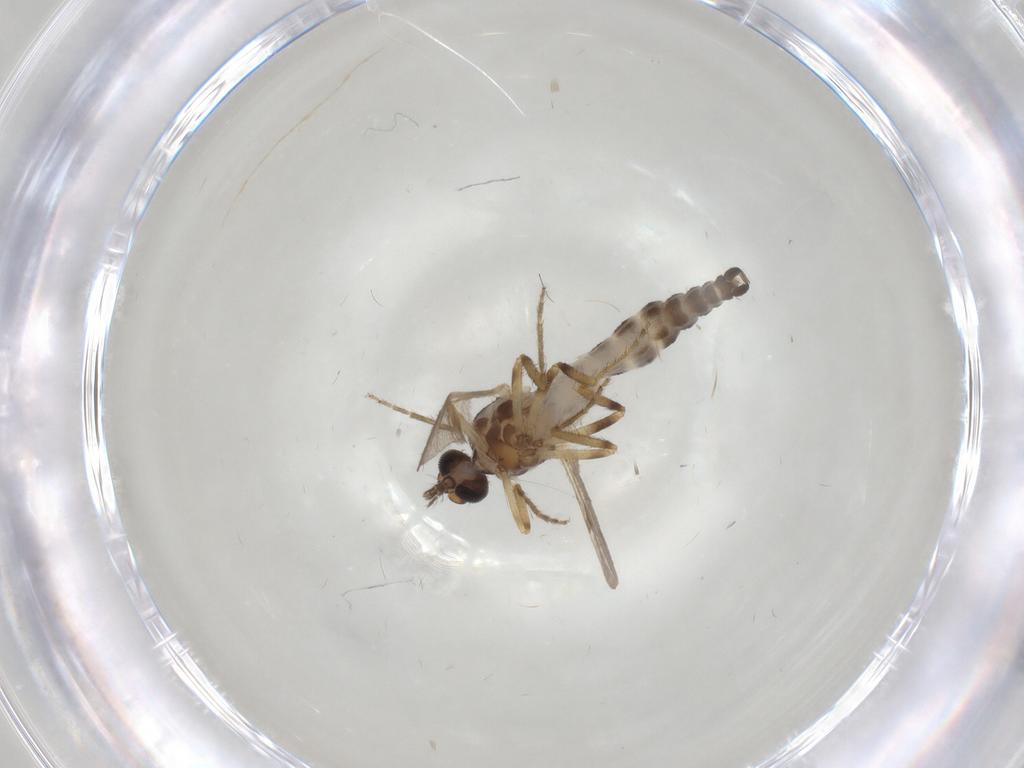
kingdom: Animalia
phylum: Arthropoda
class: Insecta
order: Diptera
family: Ceratopogonidae
